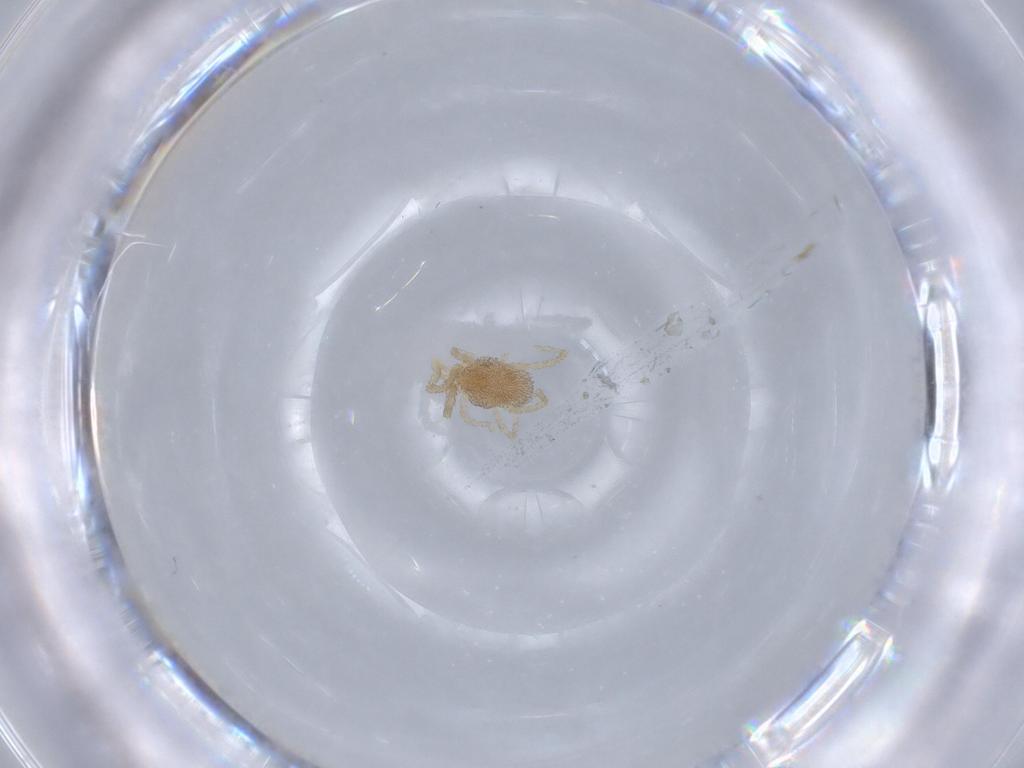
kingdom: Animalia
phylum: Arthropoda
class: Arachnida
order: Trombidiformes
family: Erythraeidae
